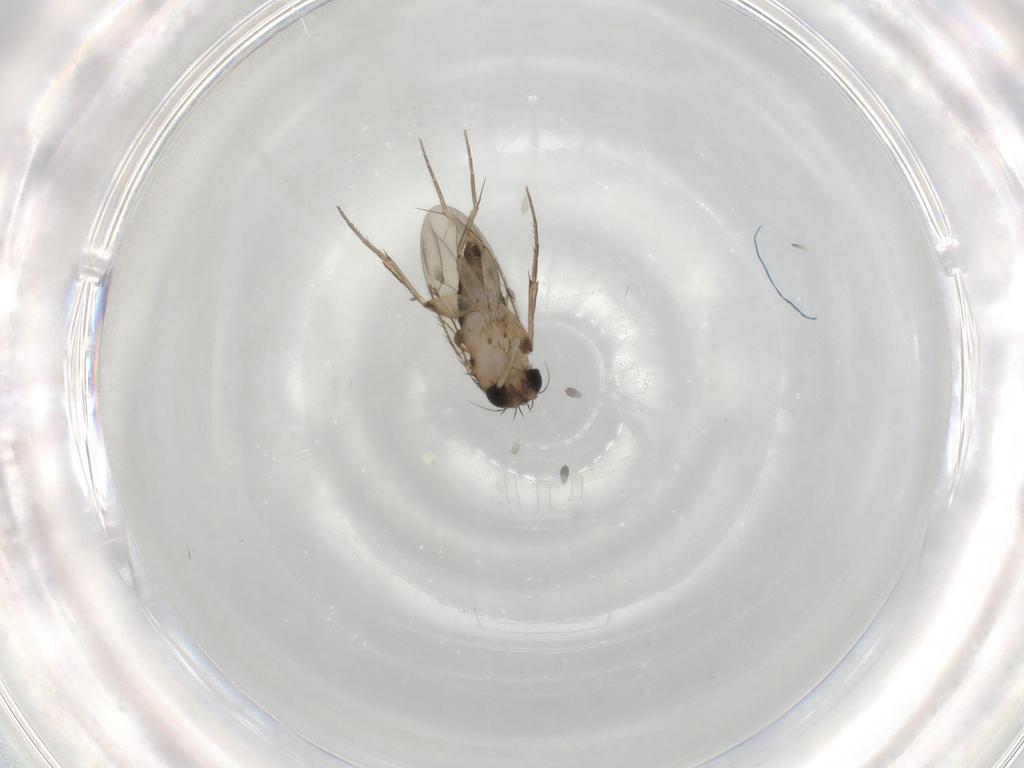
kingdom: Animalia
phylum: Arthropoda
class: Insecta
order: Diptera
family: Phoridae
